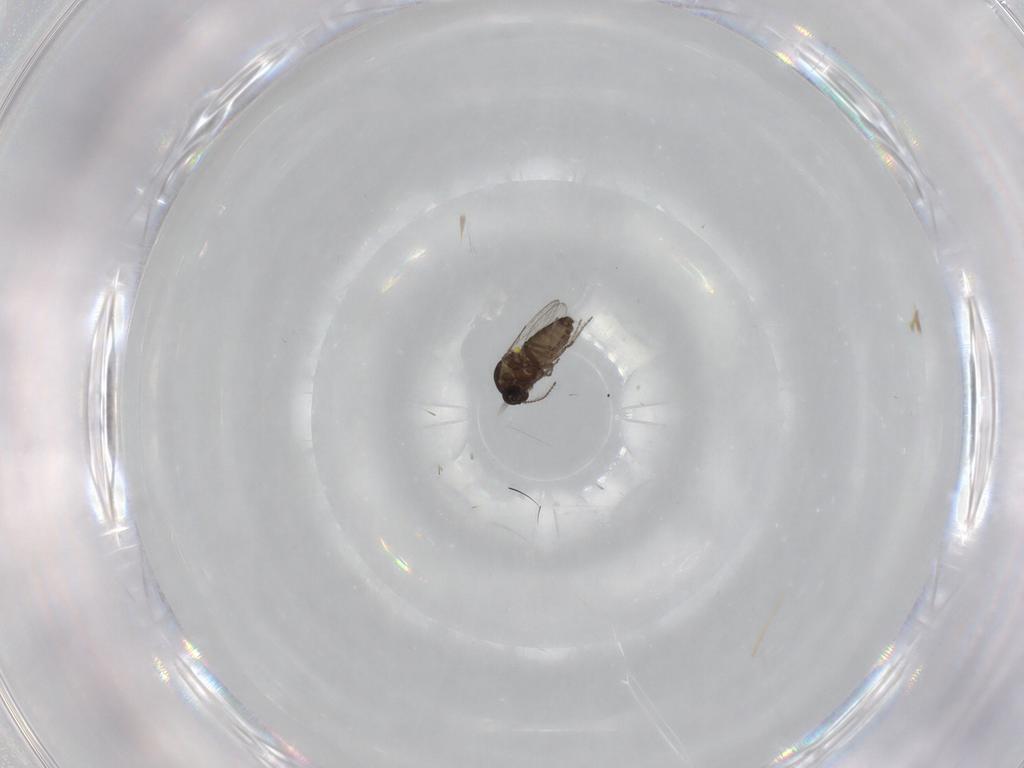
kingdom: Animalia
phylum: Arthropoda
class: Insecta
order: Diptera
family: Ceratopogonidae
